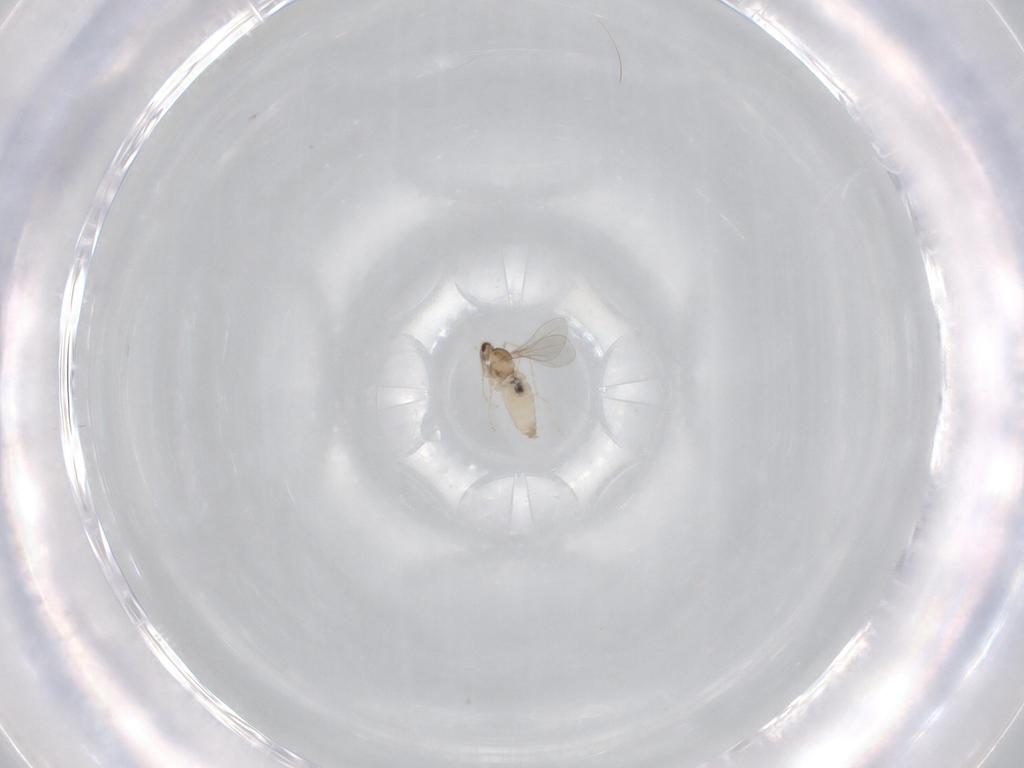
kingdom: Animalia
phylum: Arthropoda
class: Insecta
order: Diptera
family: Cecidomyiidae
